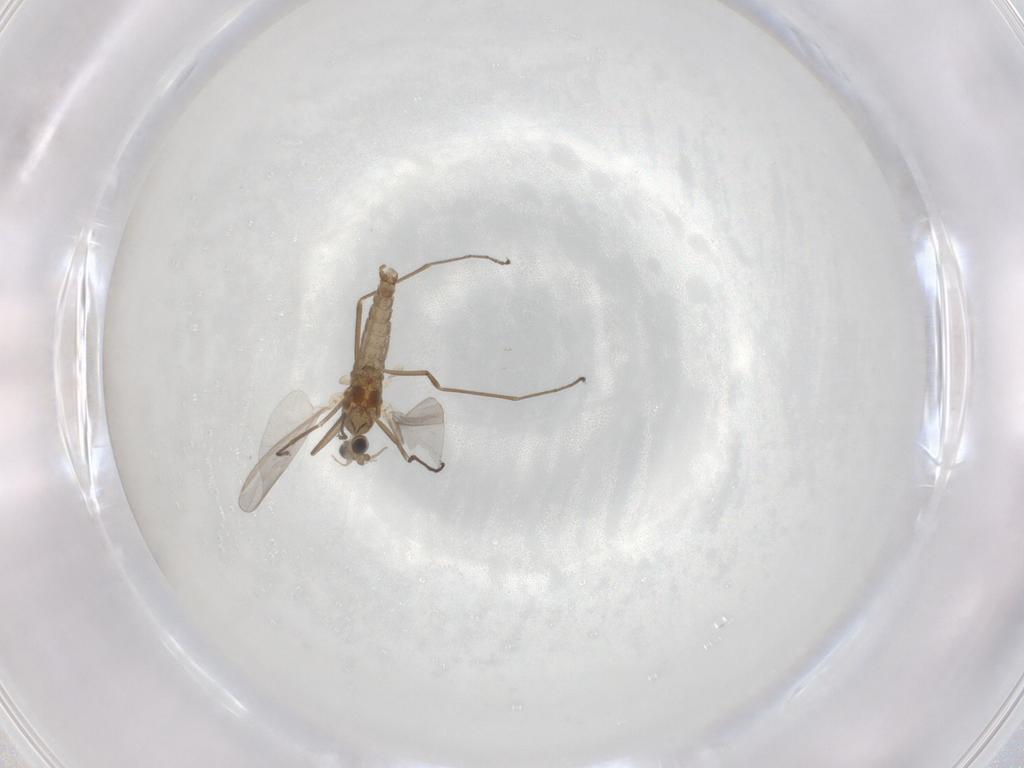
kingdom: Animalia
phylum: Arthropoda
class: Insecta
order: Diptera
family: Cecidomyiidae
